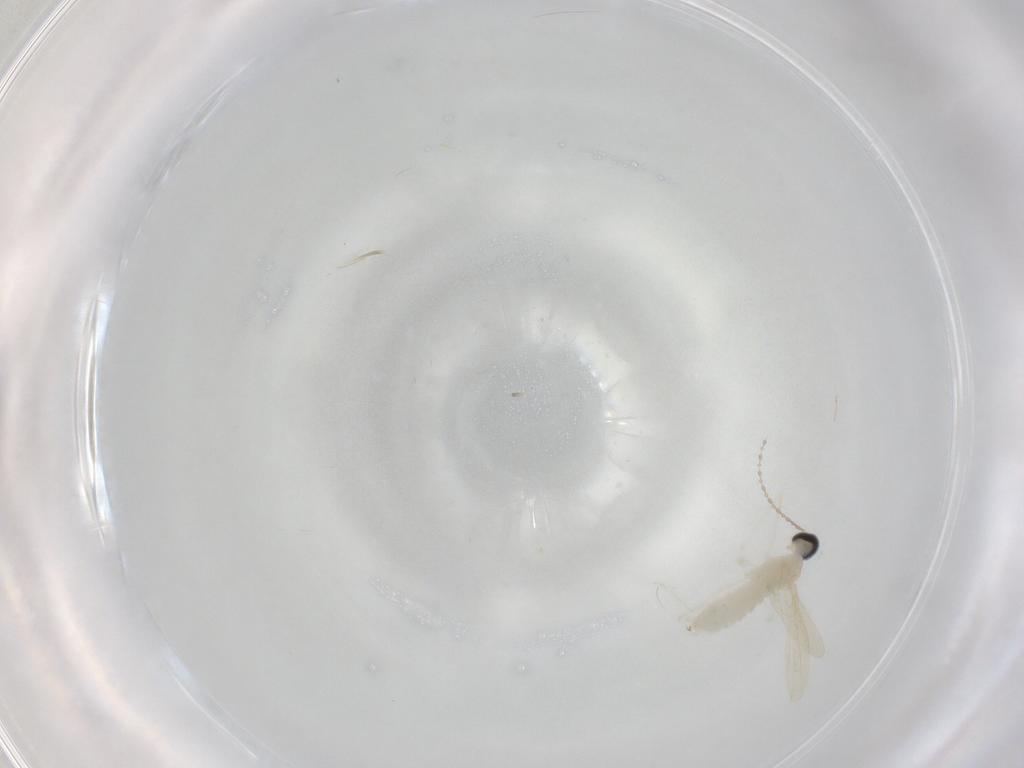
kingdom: Animalia
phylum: Arthropoda
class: Insecta
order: Diptera
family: Cecidomyiidae
